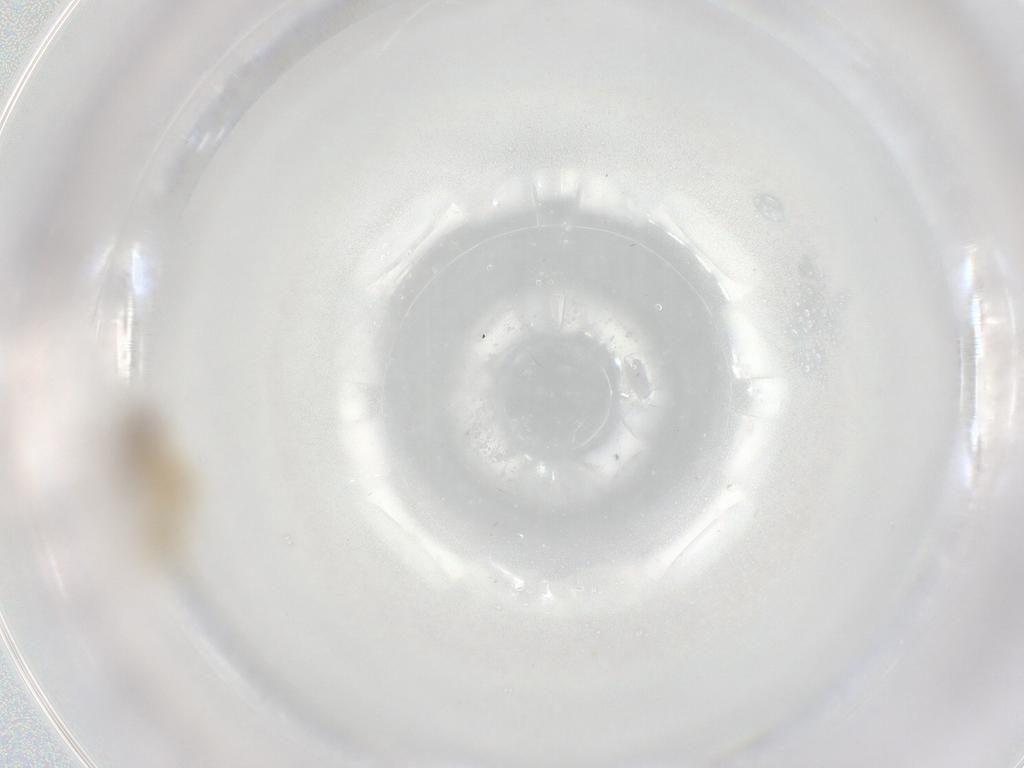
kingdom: Animalia
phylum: Arthropoda
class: Insecta
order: Hymenoptera
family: Formicidae
